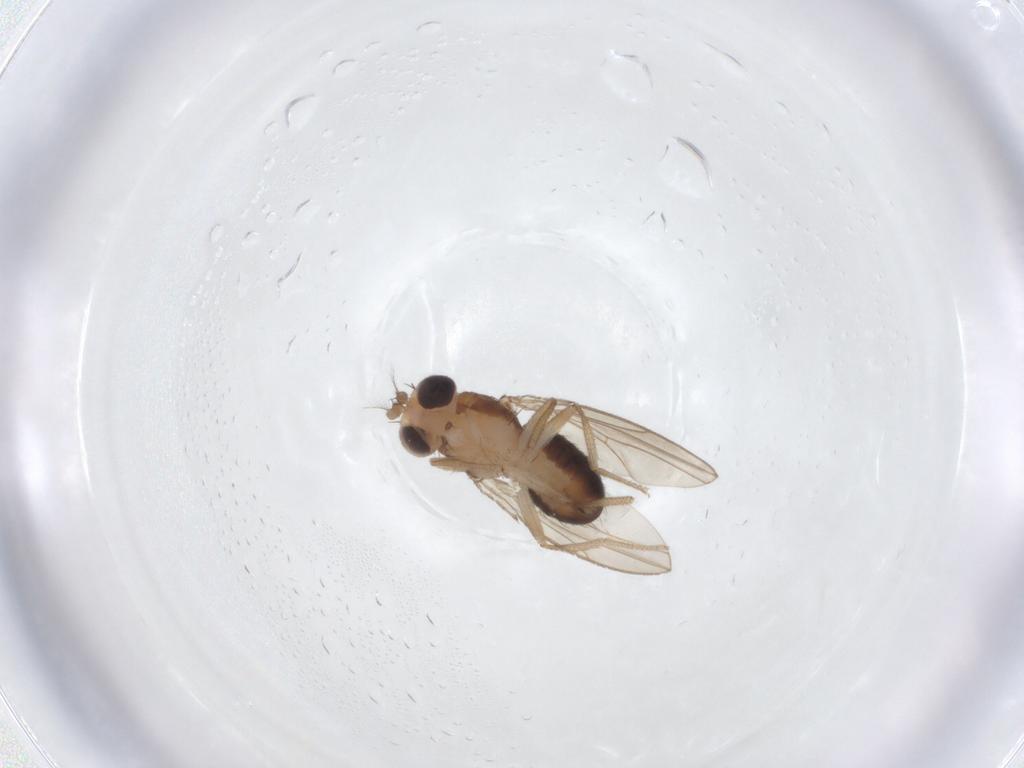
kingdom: Animalia
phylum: Arthropoda
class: Insecta
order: Diptera
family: Drosophilidae
